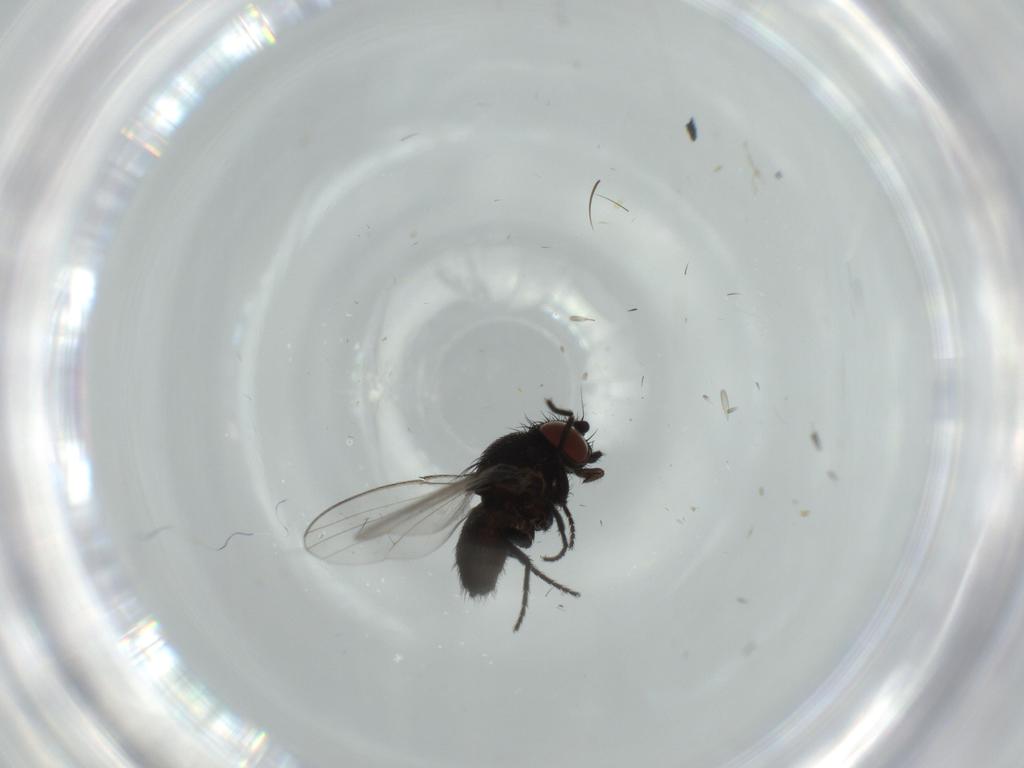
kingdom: Animalia
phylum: Arthropoda
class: Insecta
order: Diptera
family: Milichiidae
